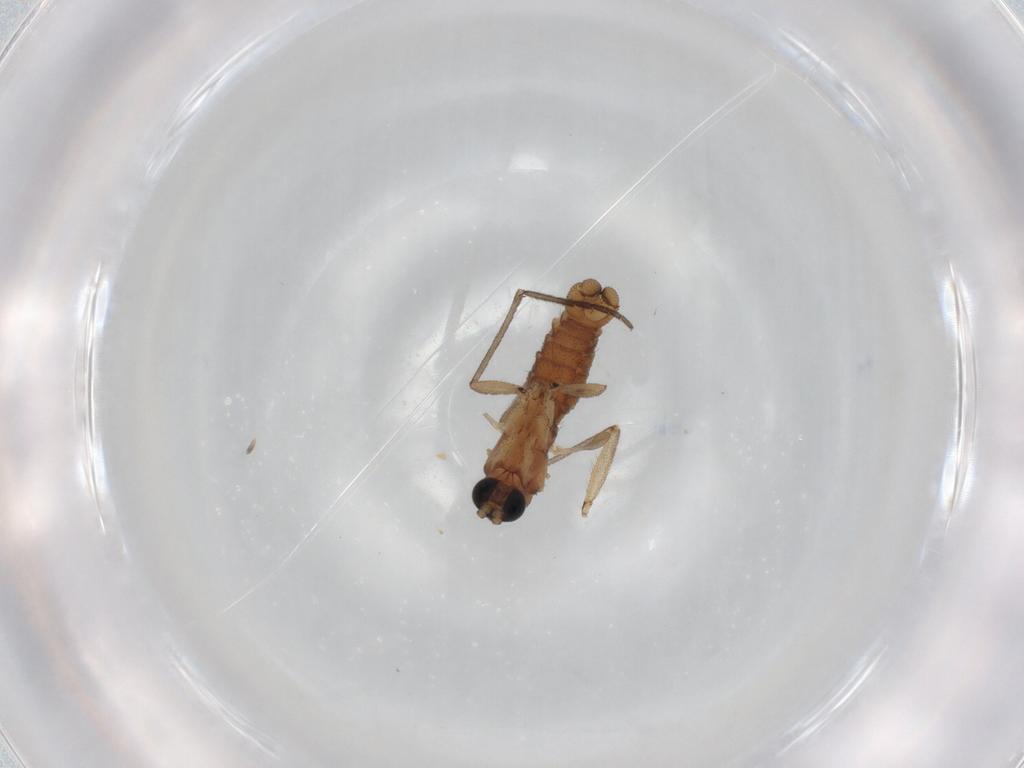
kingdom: Animalia
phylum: Arthropoda
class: Insecta
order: Diptera
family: Sciaridae
